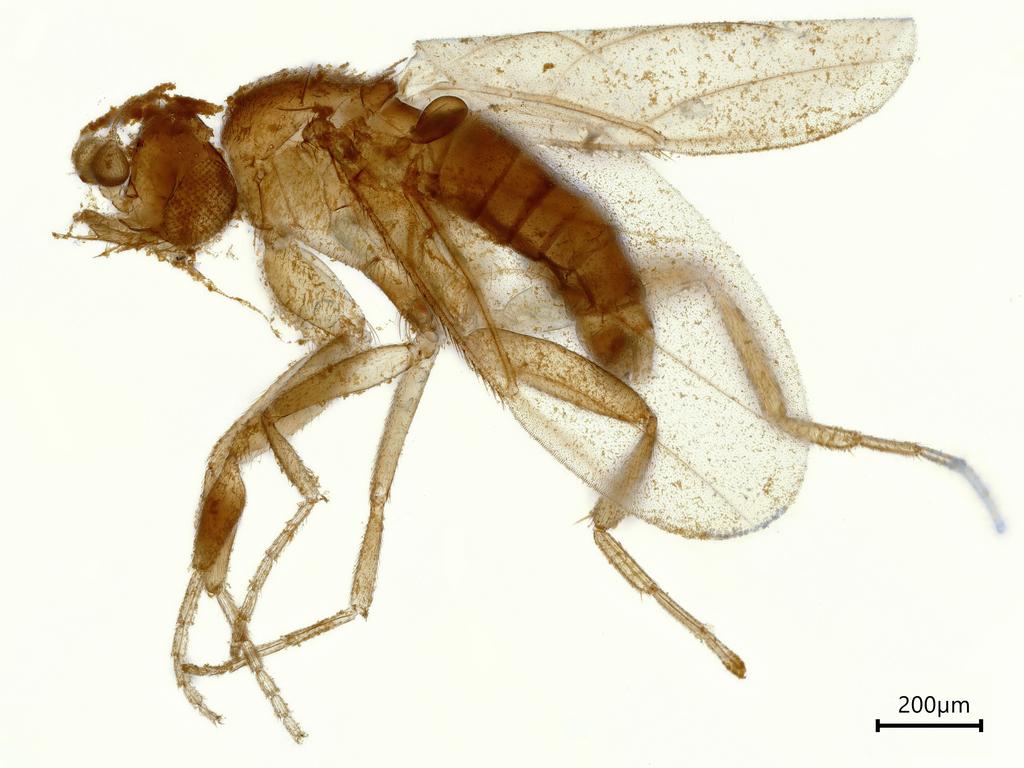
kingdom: Animalia
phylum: Arthropoda
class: Insecta
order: Diptera
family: Phoridae
